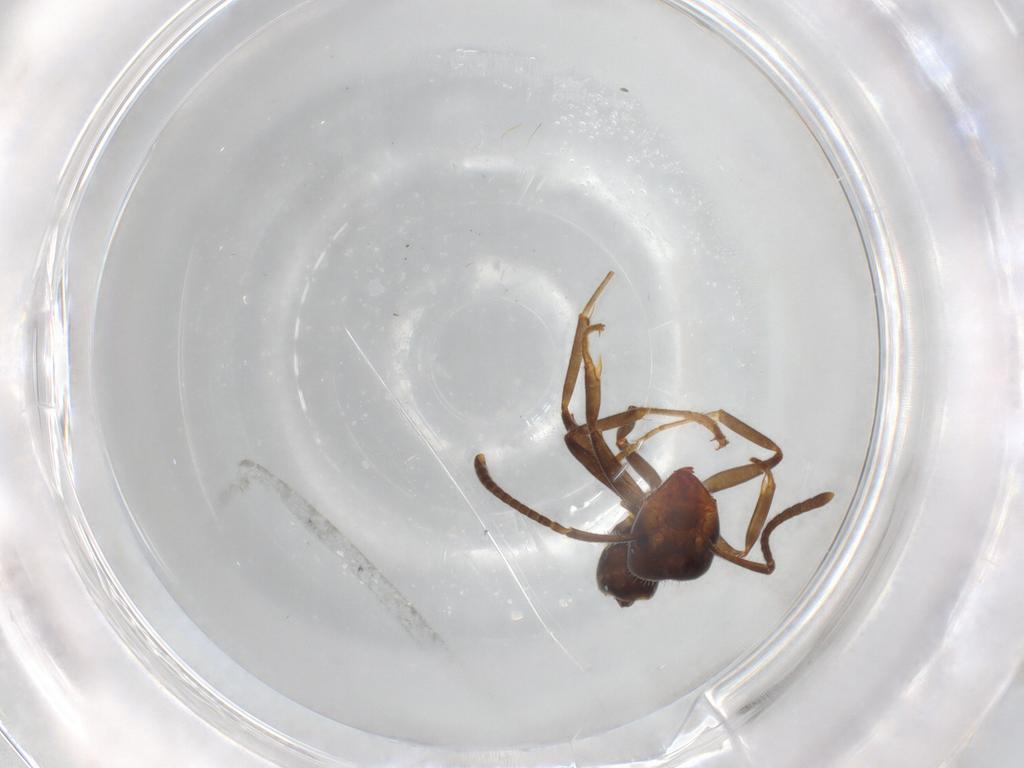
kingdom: Animalia
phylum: Arthropoda
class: Insecta
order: Hymenoptera
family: Formicidae
